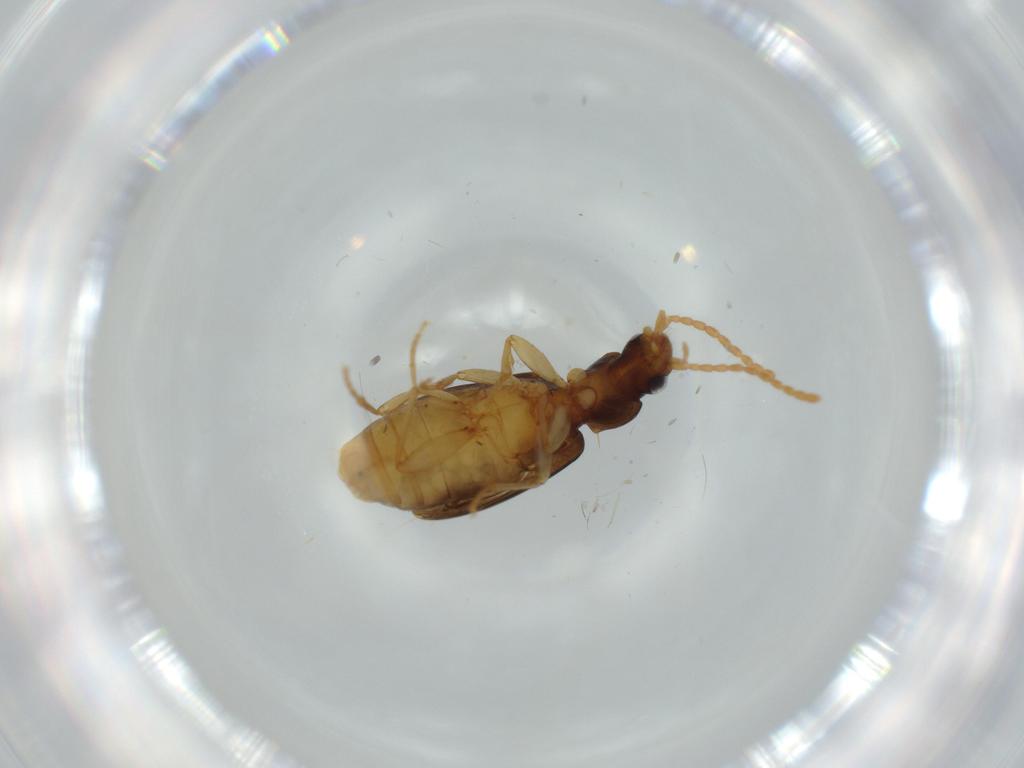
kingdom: Animalia
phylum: Arthropoda
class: Insecta
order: Coleoptera
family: Carabidae
